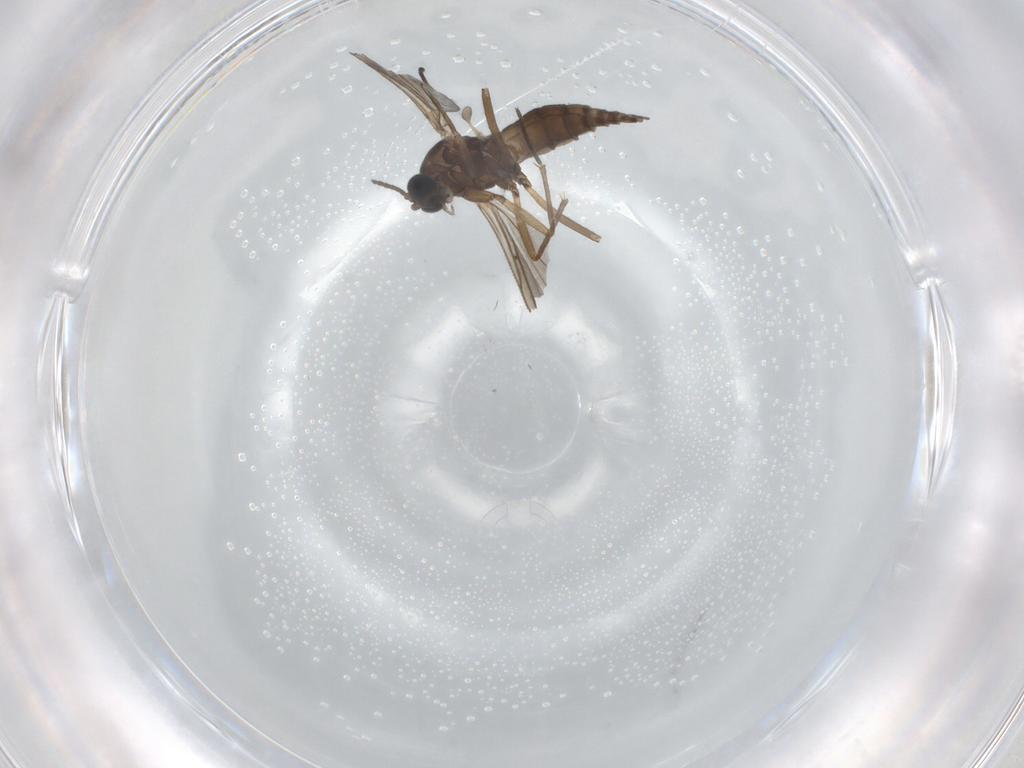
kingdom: Animalia
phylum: Arthropoda
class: Insecta
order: Diptera
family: Sciaridae
